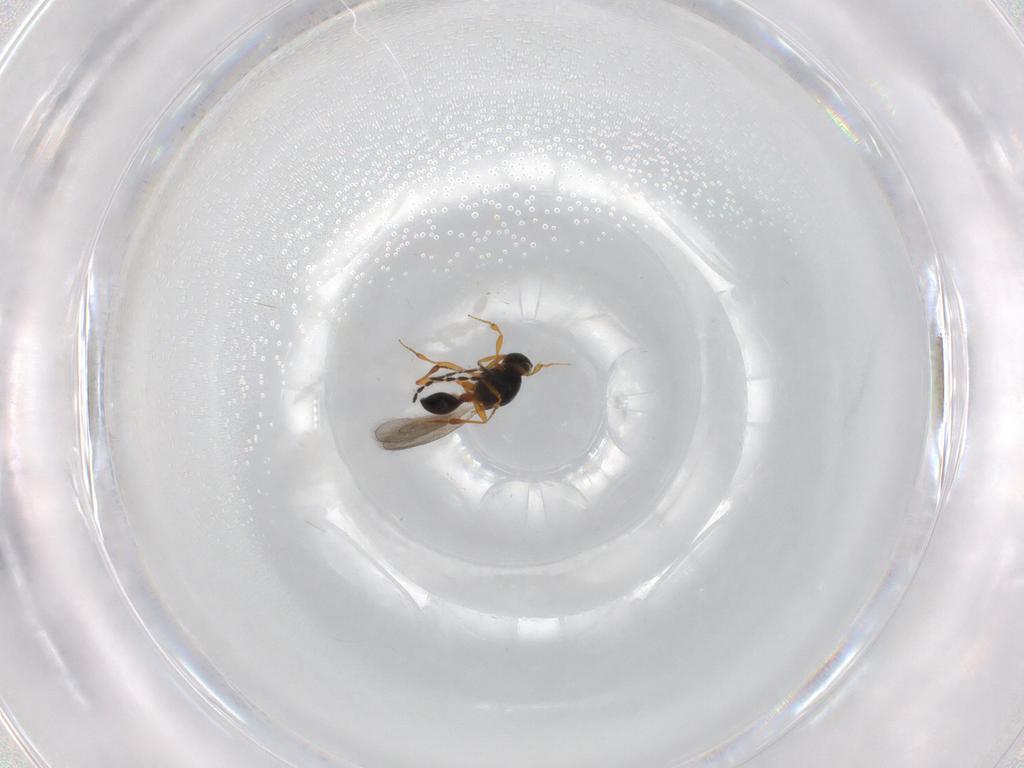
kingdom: Animalia
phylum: Arthropoda
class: Insecta
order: Hymenoptera
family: Platygastridae
